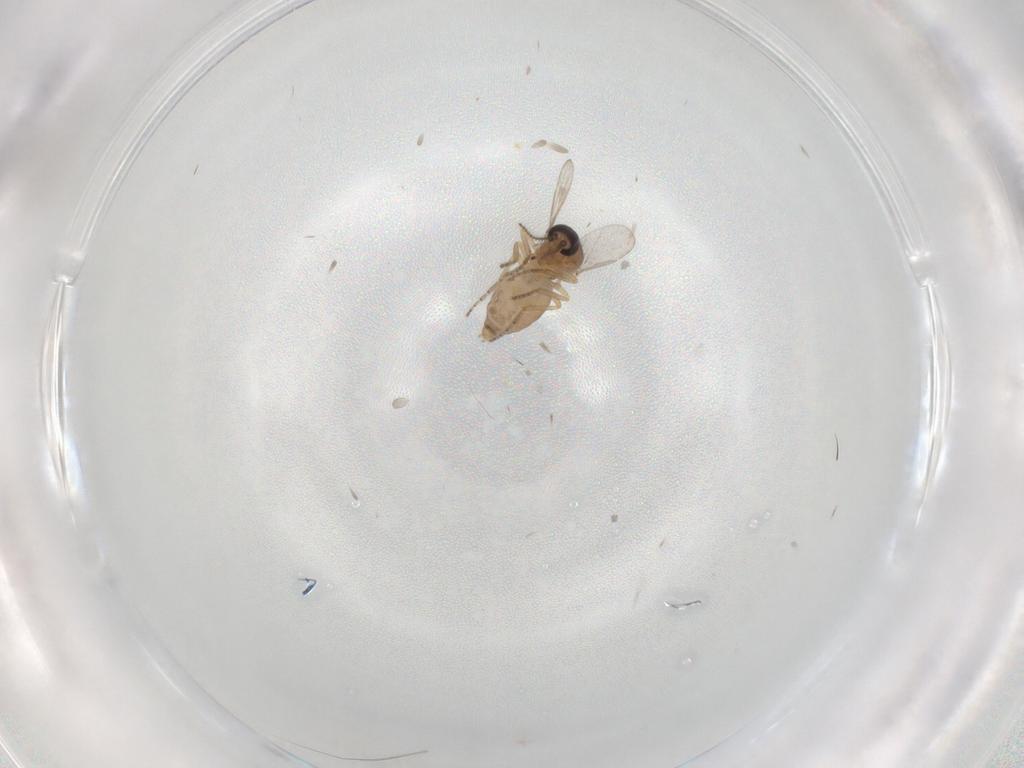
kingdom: Animalia
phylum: Arthropoda
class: Insecta
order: Diptera
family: Ceratopogonidae
